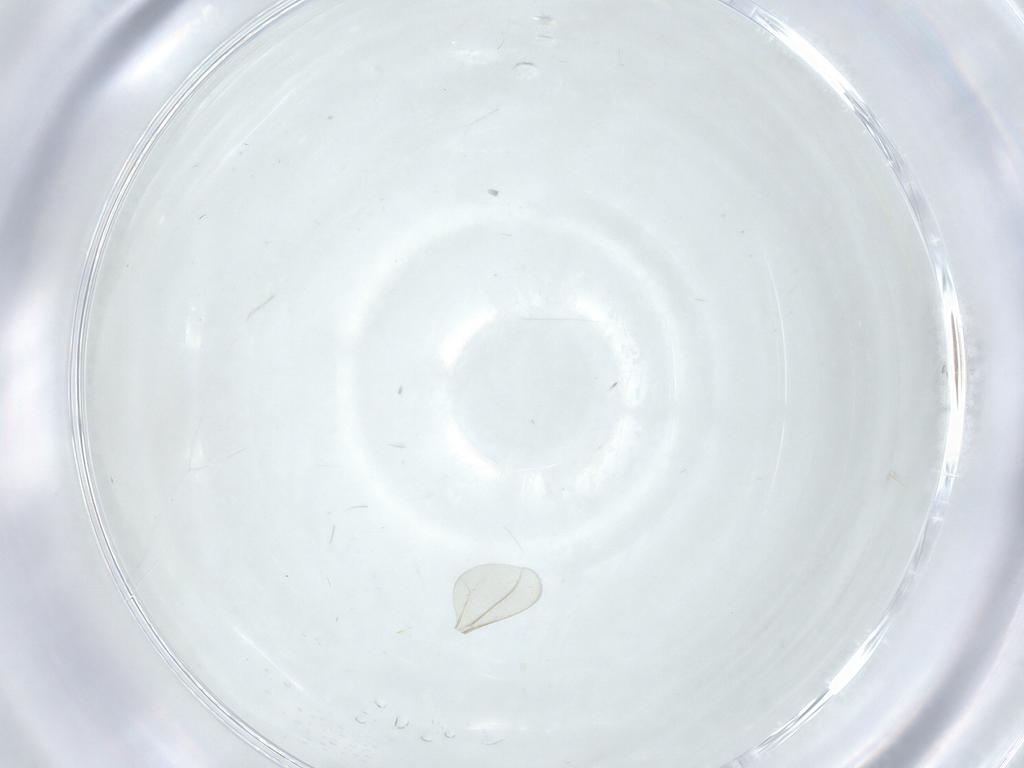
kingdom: Animalia
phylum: Arthropoda
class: Insecta
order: Orthoptera
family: Tettigoniidae
